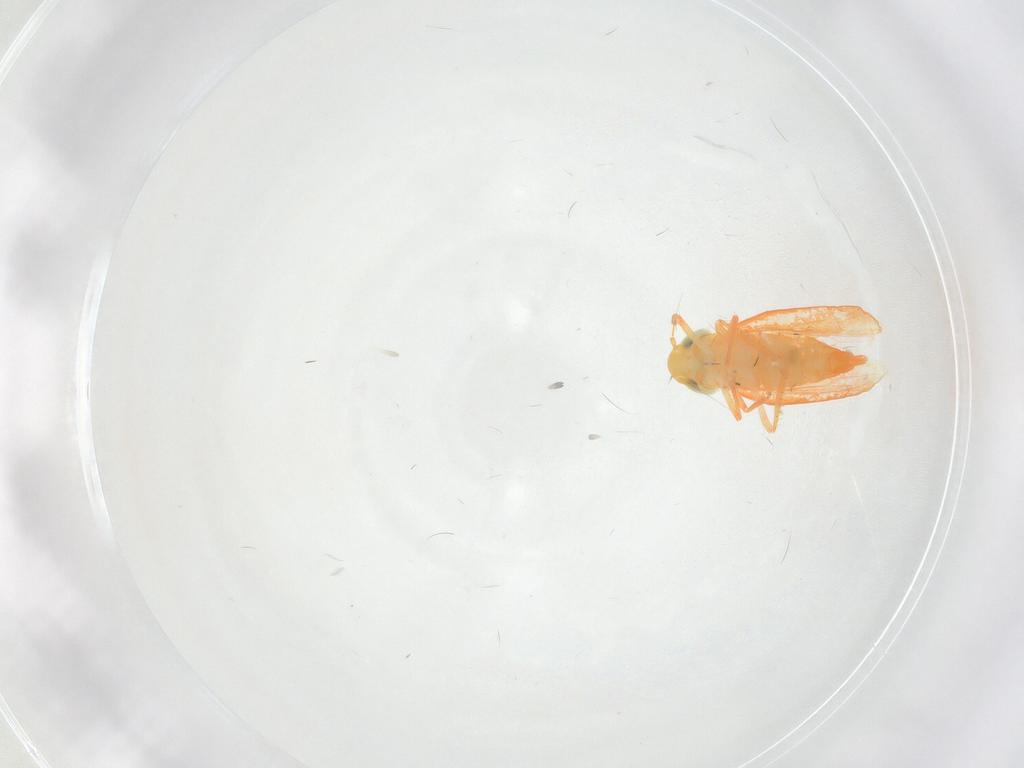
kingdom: Animalia
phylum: Arthropoda
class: Insecta
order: Hemiptera
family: Cicadellidae
